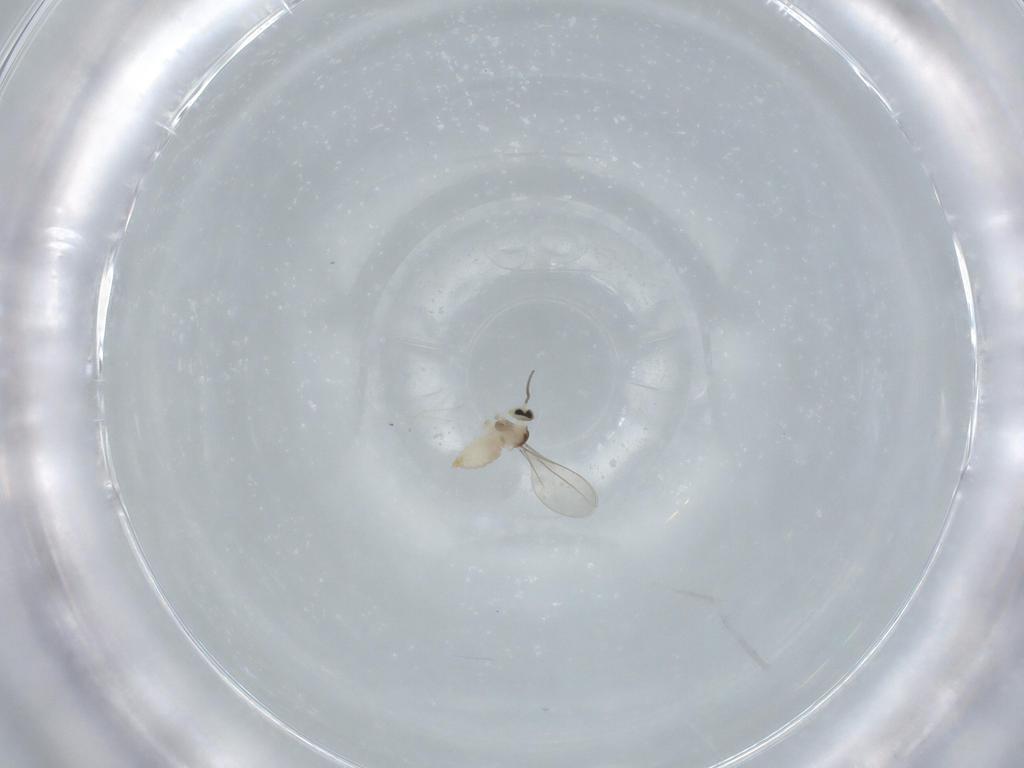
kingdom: Animalia
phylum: Arthropoda
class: Insecta
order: Diptera
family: Cecidomyiidae
